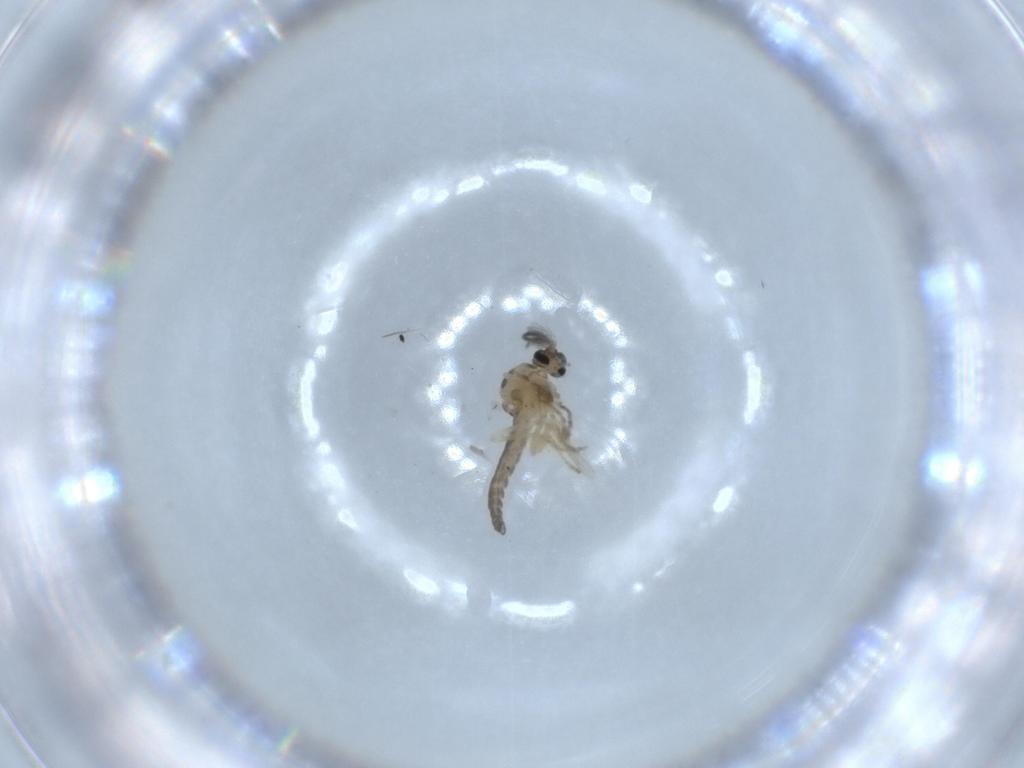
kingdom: Animalia
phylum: Arthropoda
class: Insecta
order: Diptera
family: Ceratopogonidae
